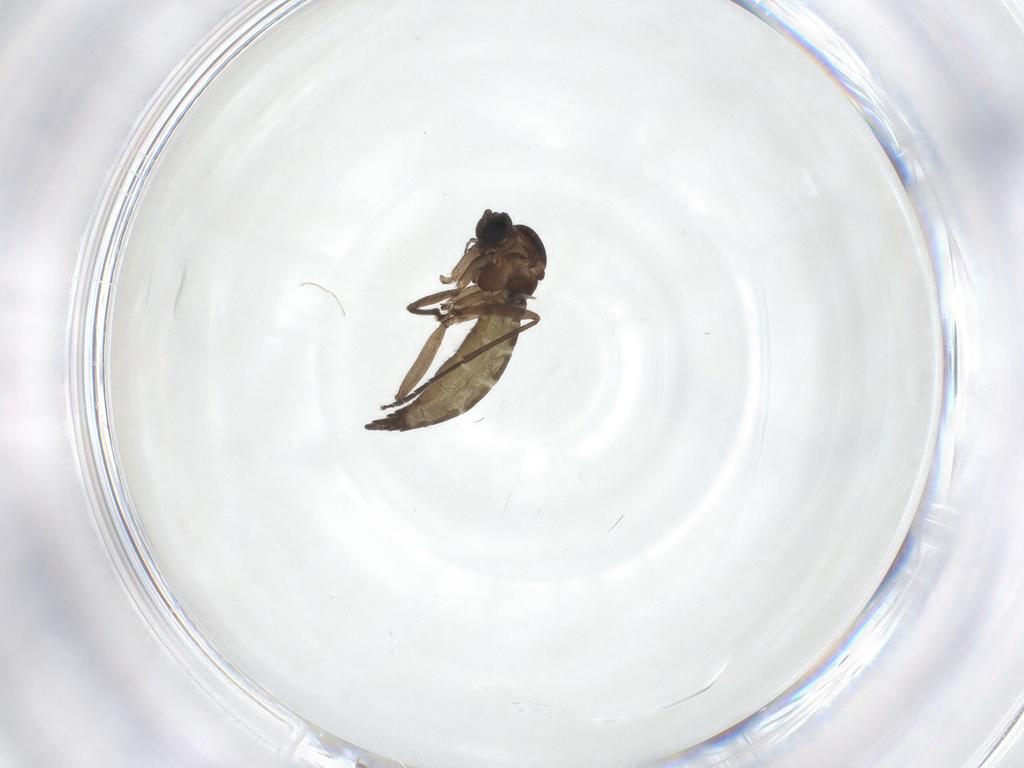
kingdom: Animalia
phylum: Arthropoda
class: Insecta
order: Diptera
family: Sciaridae
